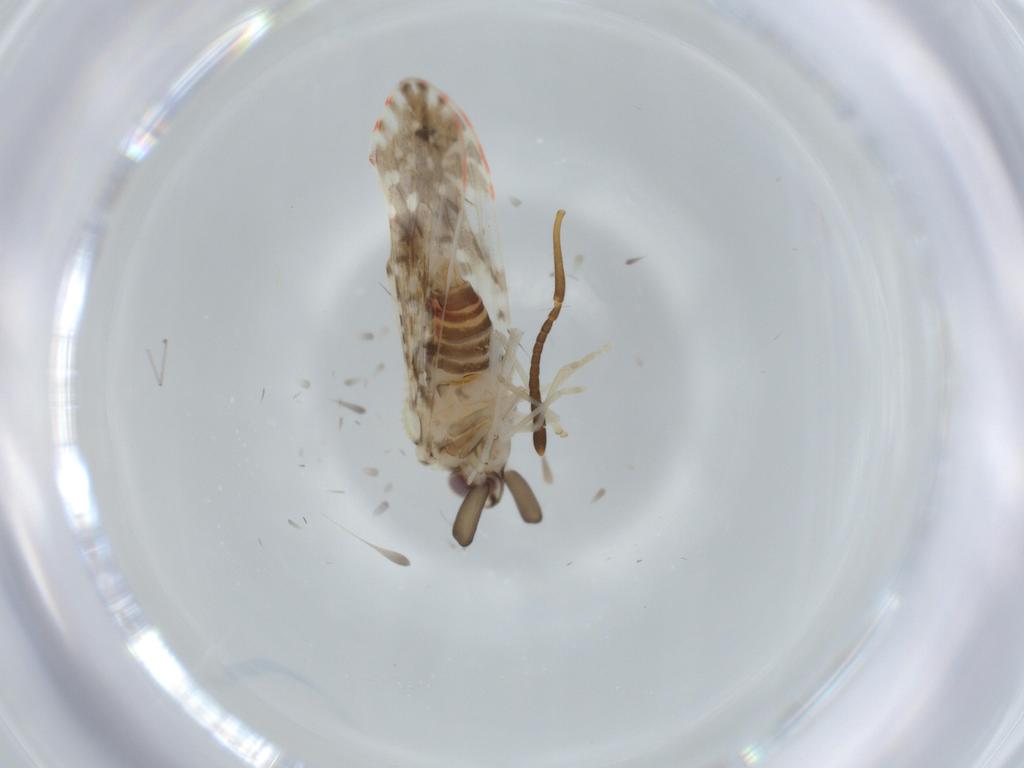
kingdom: Animalia
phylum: Arthropoda
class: Insecta
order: Hemiptera
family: Derbidae
